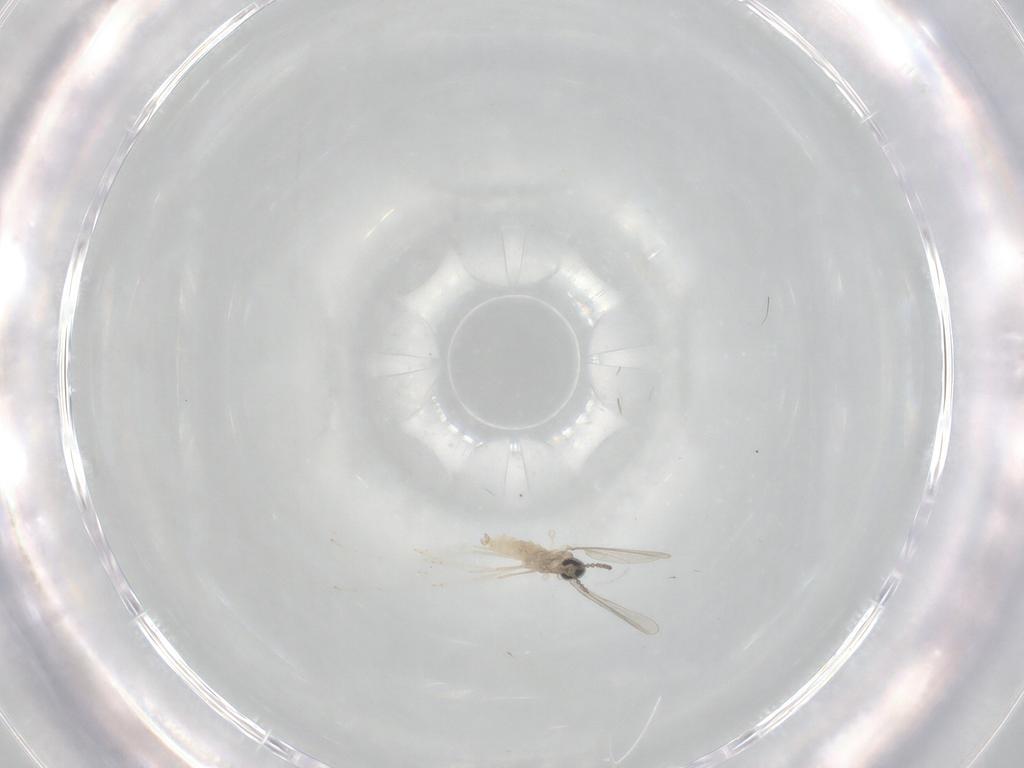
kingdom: Animalia
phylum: Arthropoda
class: Insecta
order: Diptera
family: Cecidomyiidae
